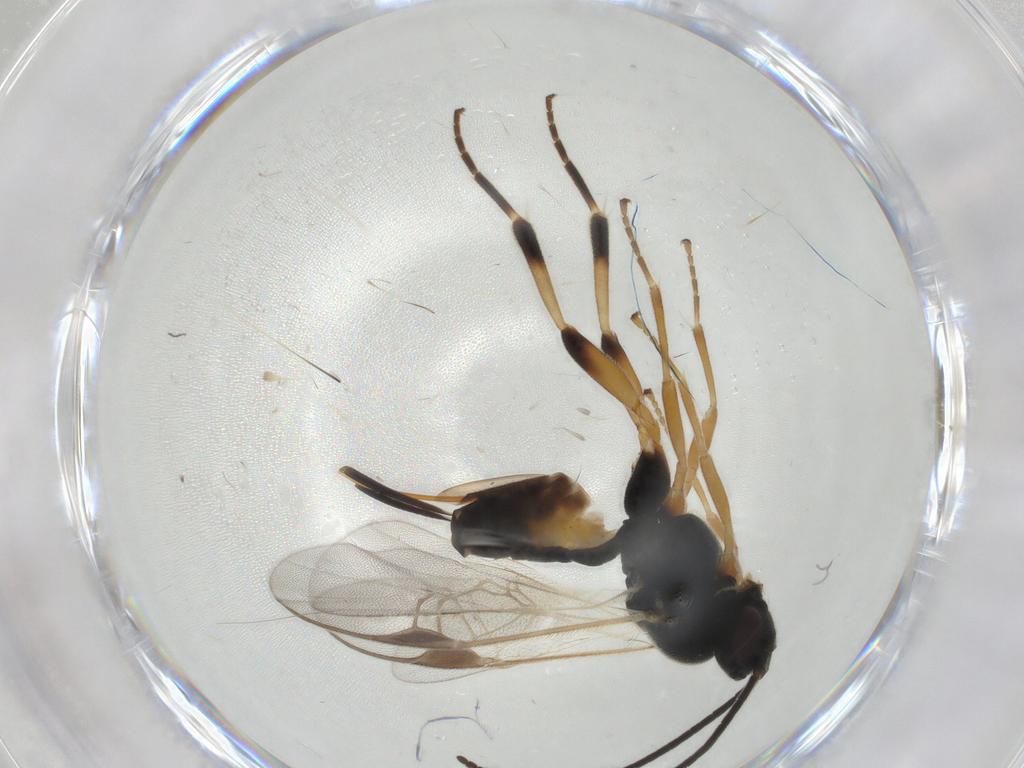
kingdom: Animalia
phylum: Arthropoda
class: Insecta
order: Hymenoptera
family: Braconidae
